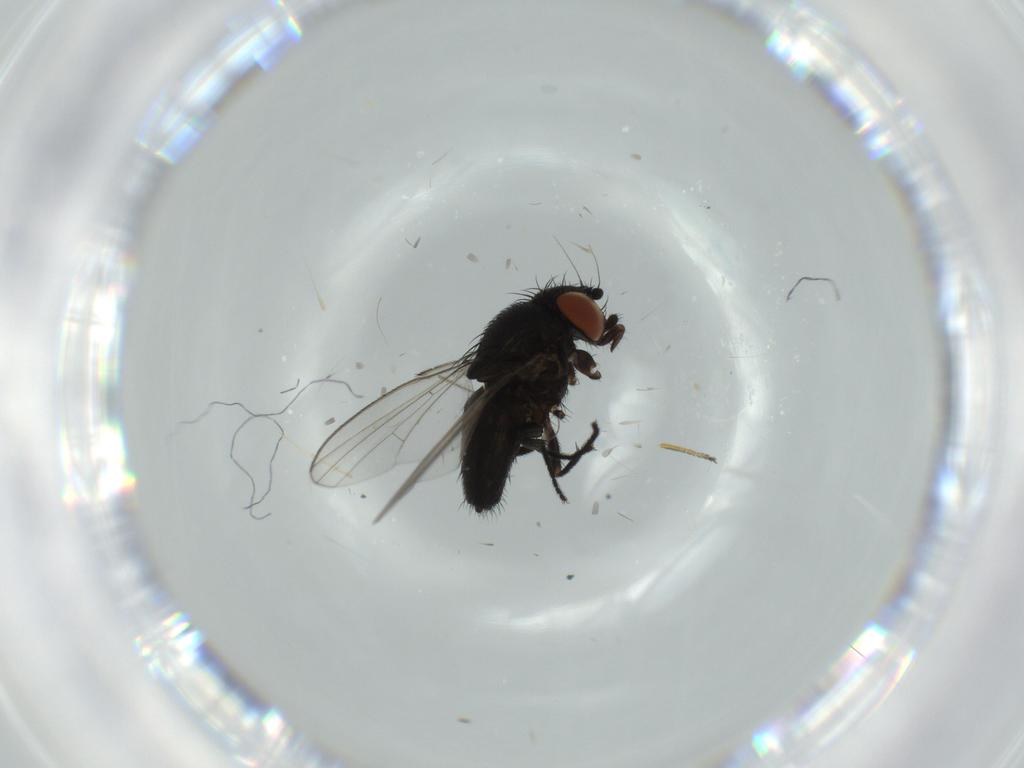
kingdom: Animalia
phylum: Arthropoda
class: Insecta
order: Diptera
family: Milichiidae
